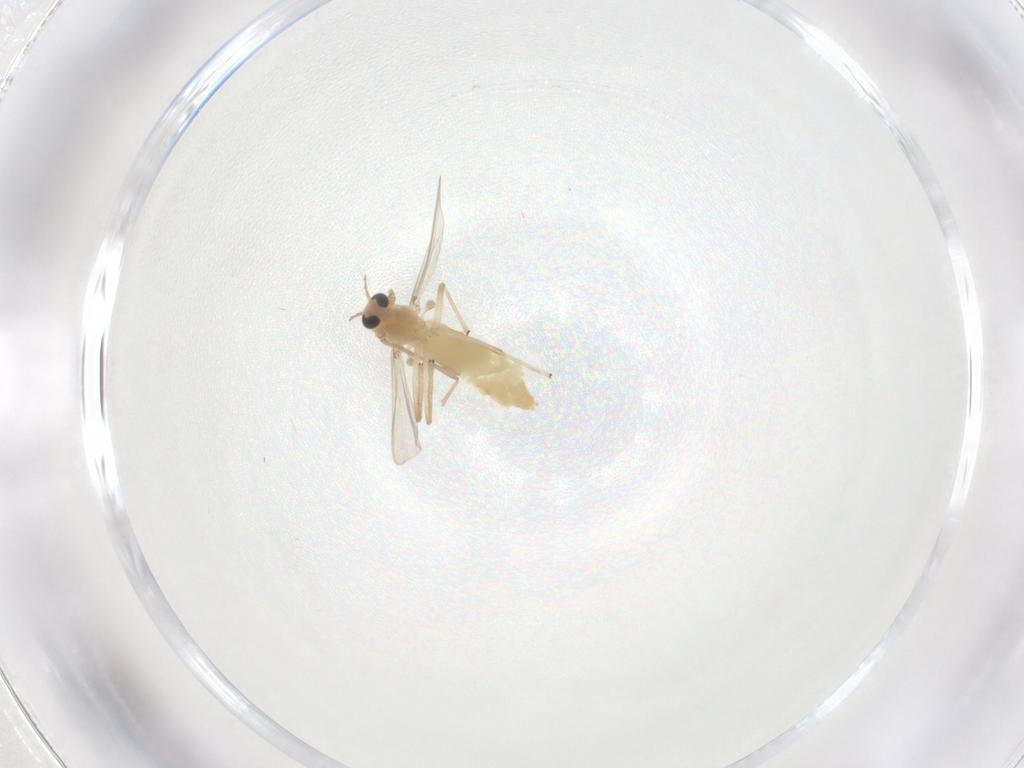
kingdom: Animalia
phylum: Arthropoda
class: Insecta
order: Diptera
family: Chironomidae
